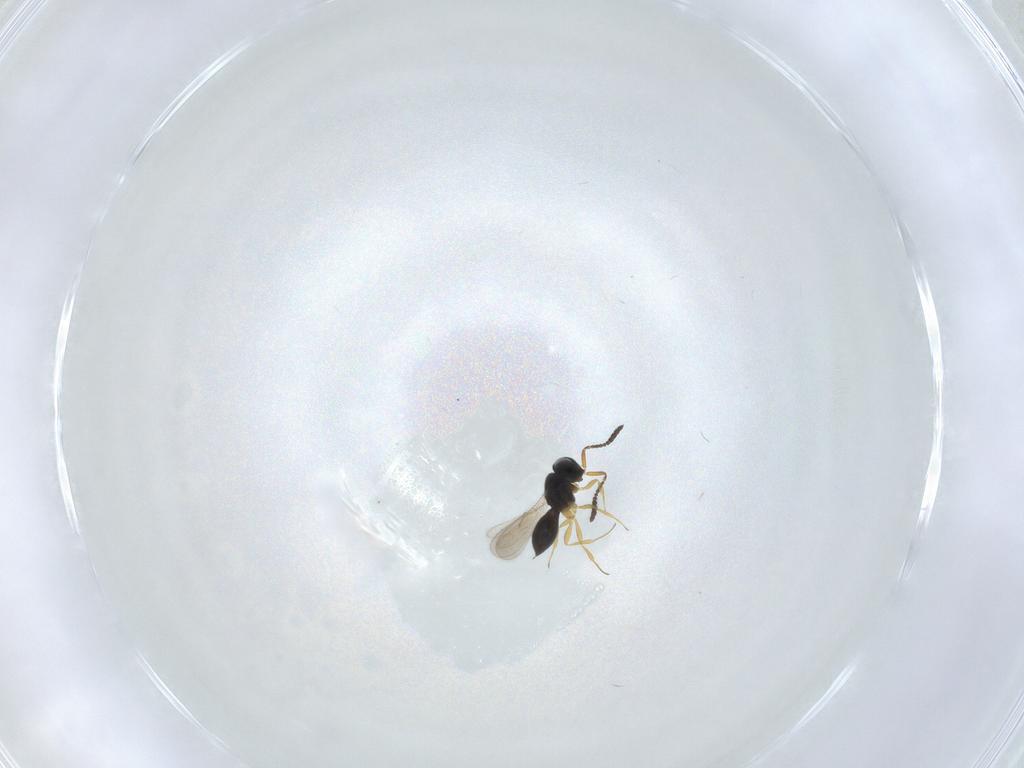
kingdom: Animalia
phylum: Arthropoda
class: Insecta
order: Hymenoptera
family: Scelionidae
